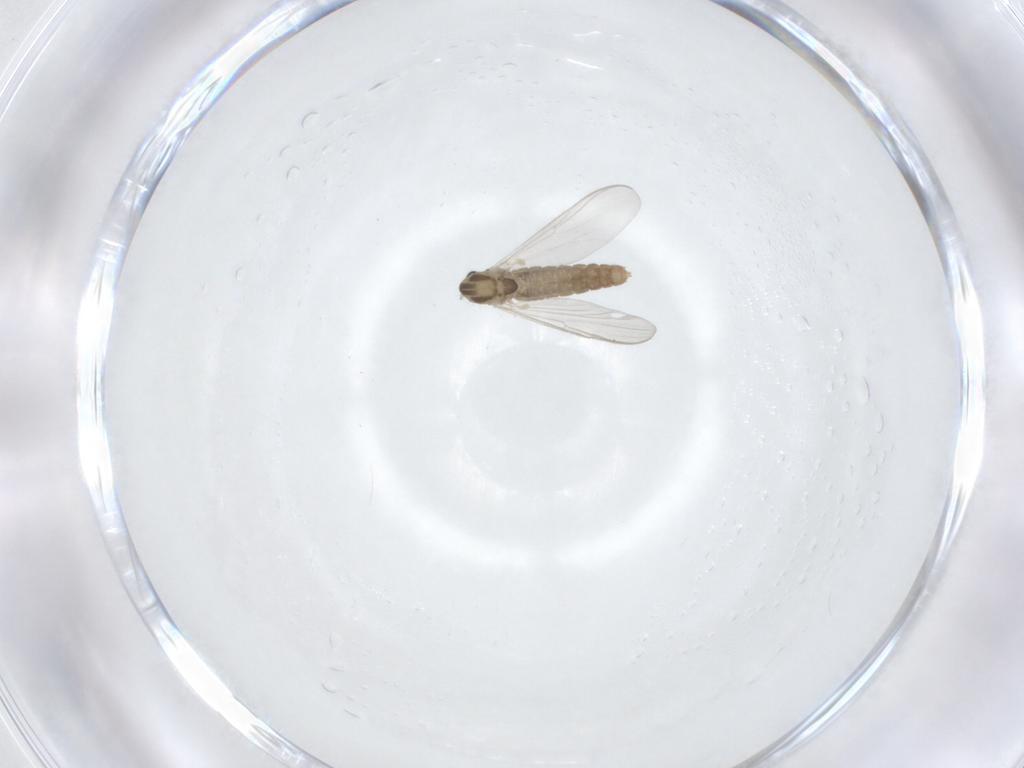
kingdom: Animalia
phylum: Arthropoda
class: Insecta
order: Diptera
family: Chironomidae
